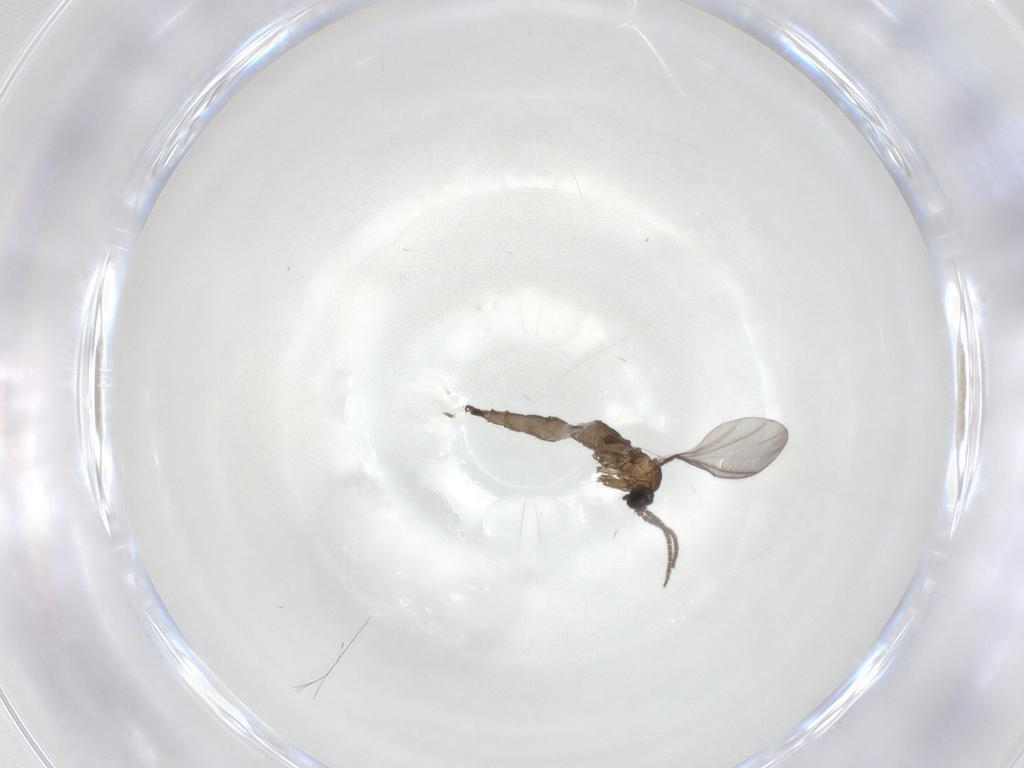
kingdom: Animalia
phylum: Arthropoda
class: Insecta
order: Diptera
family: Sciaridae
